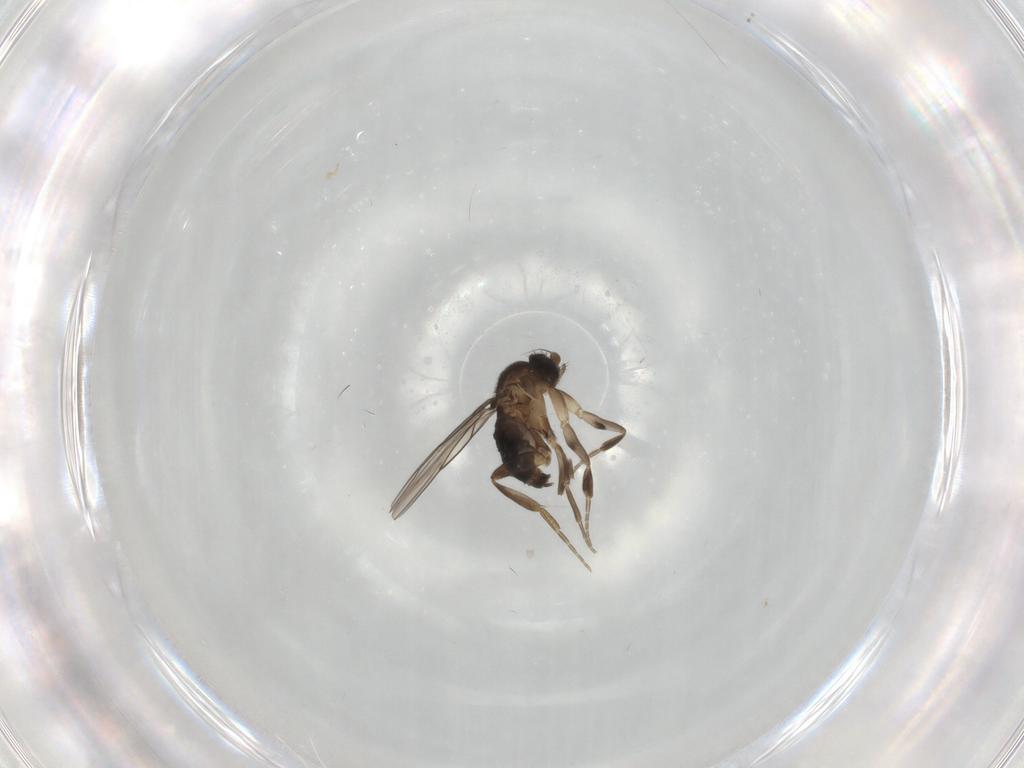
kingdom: Animalia
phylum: Arthropoda
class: Insecta
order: Diptera
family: Phoridae
